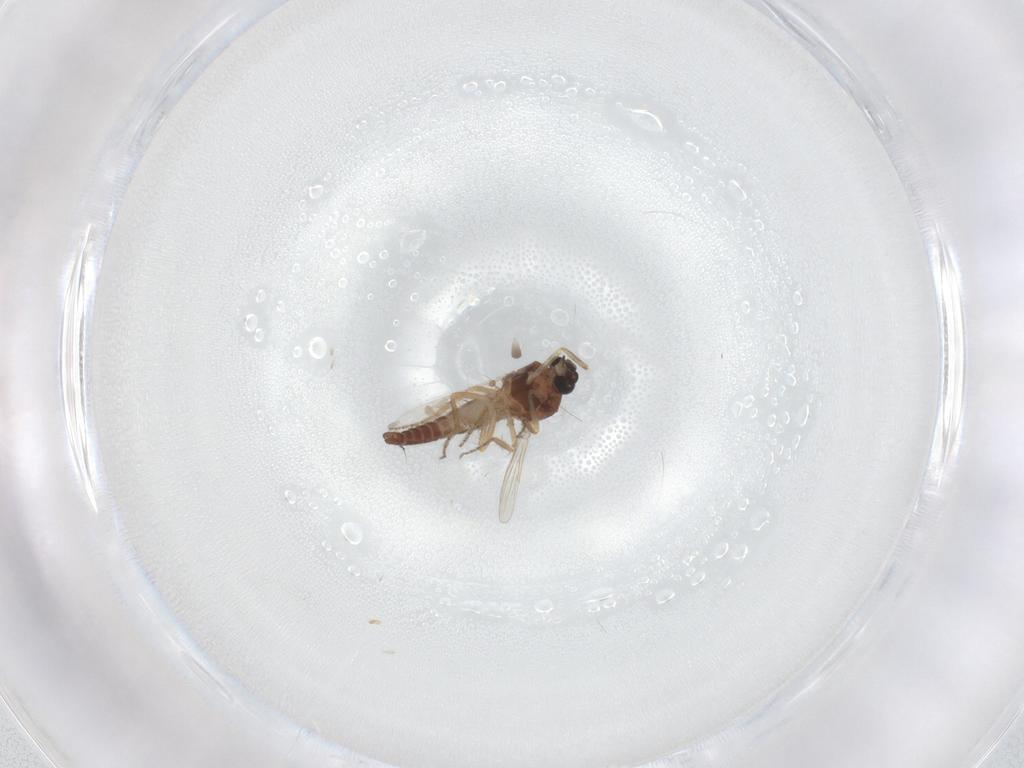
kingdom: Animalia
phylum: Arthropoda
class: Insecta
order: Diptera
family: Ceratopogonidae
